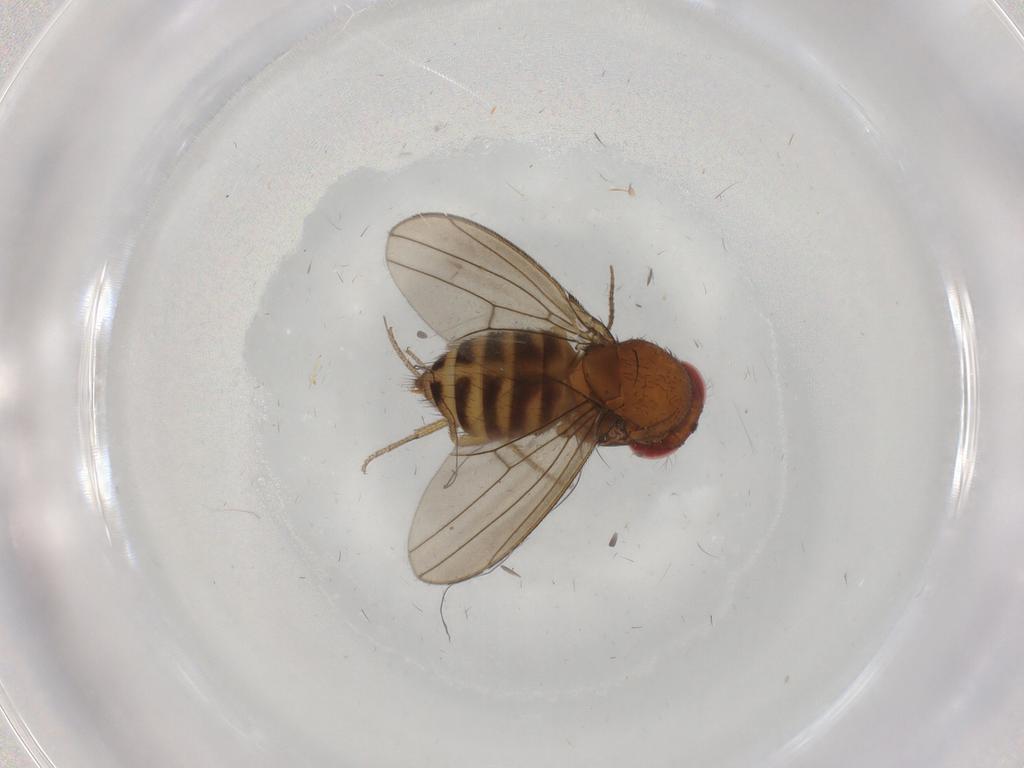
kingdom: Animalia
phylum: Arthropoda
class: Insecta
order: Diptera
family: Drosophilidae
